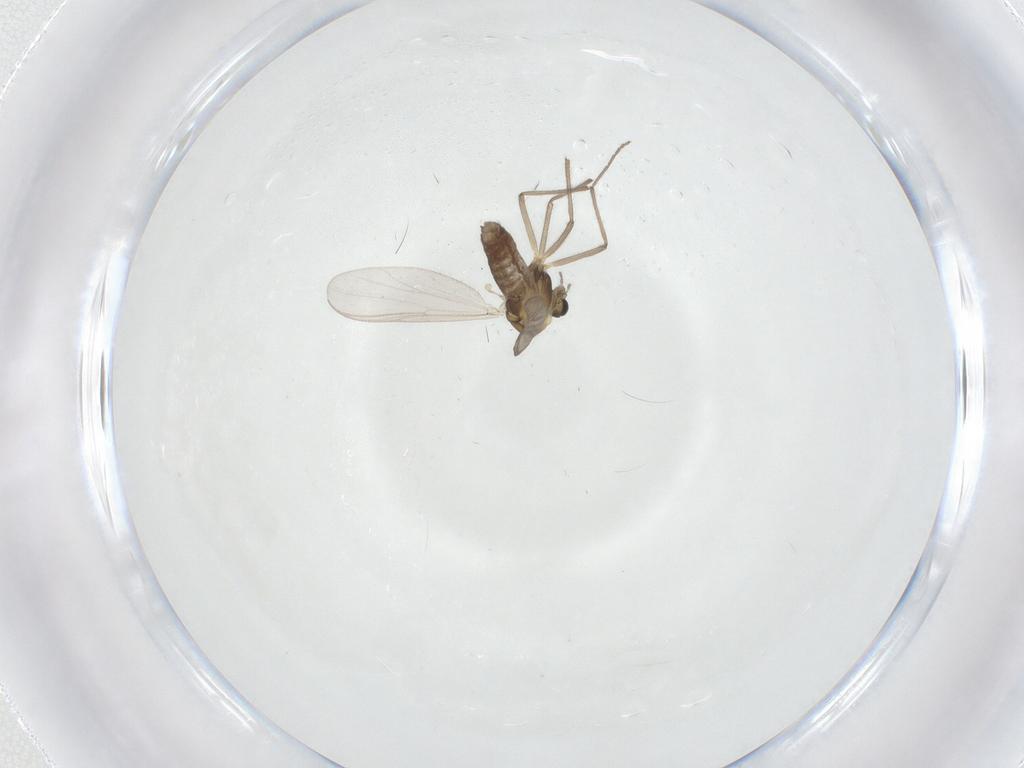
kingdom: Animalia
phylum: Arthropoda
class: Insecta
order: Diptera
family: Chironomidae
